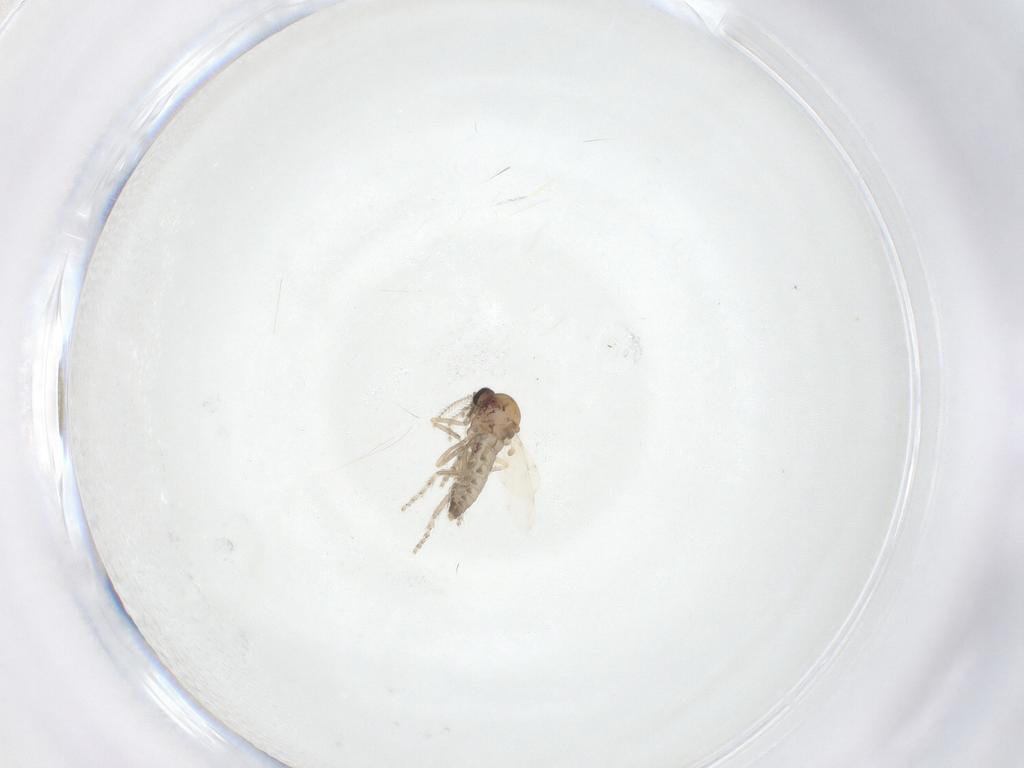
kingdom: Animalia
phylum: Arthropoda
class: Insecta
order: Diptera
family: Ceratopogonidae
